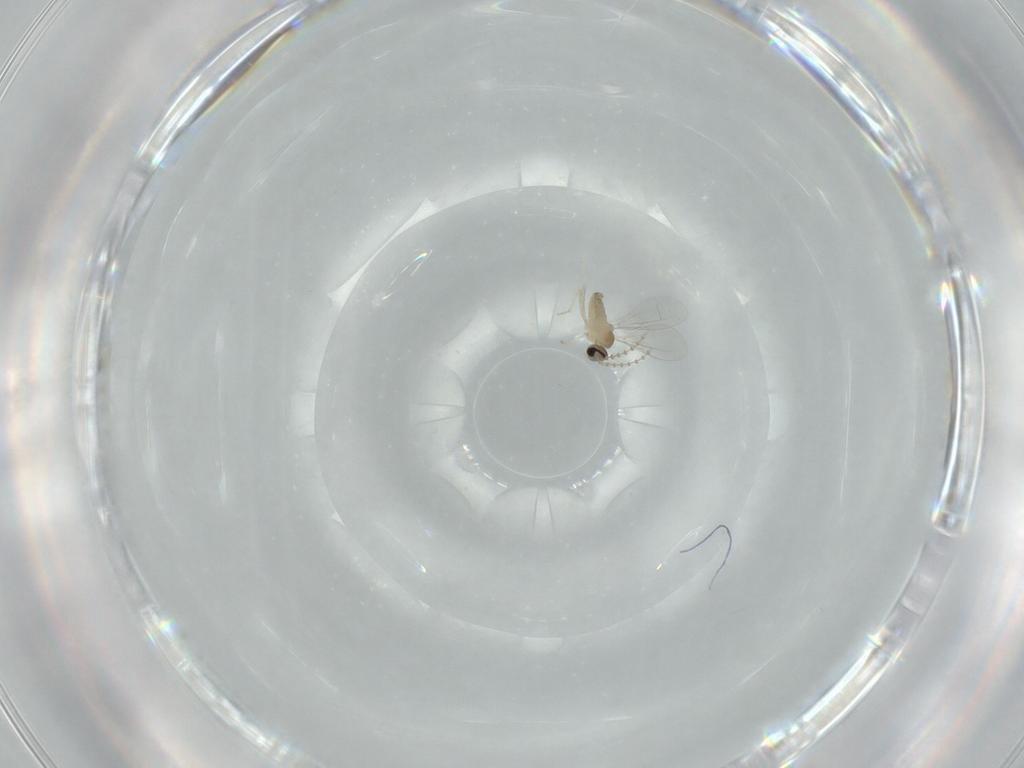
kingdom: Animalia
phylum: Arthropoda
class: Insecta
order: Diptera
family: Cecidomyiidae
